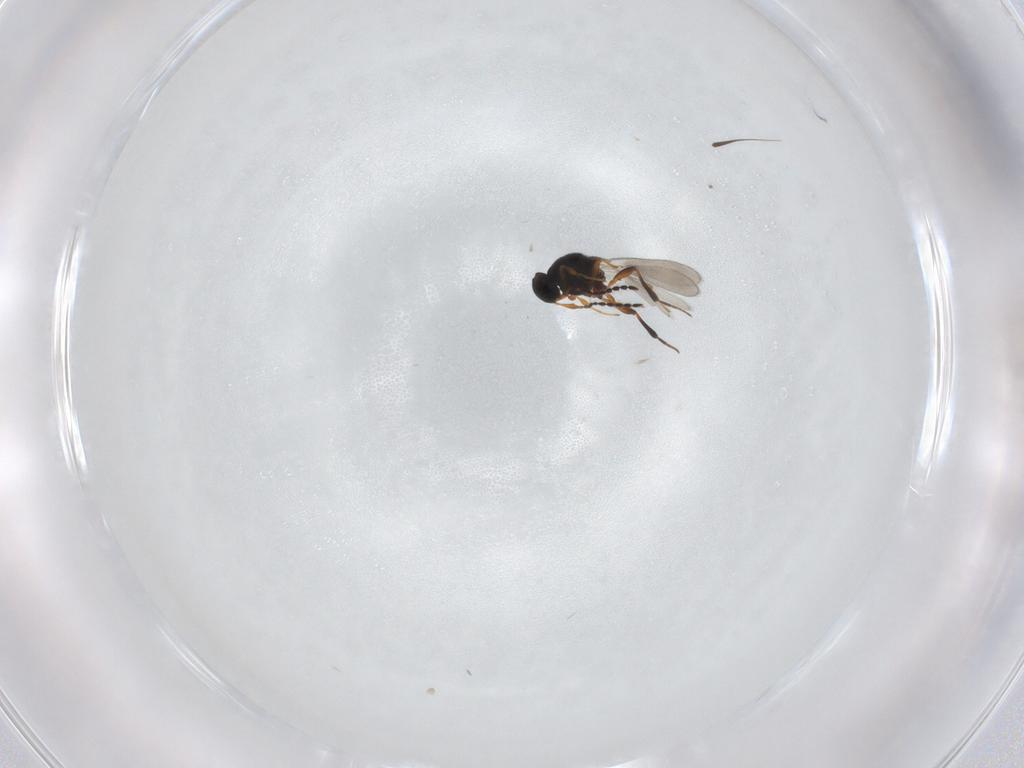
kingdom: Animalia
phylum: Arthropoda
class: Insecta
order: Hymenoptera
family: Platygastridae
